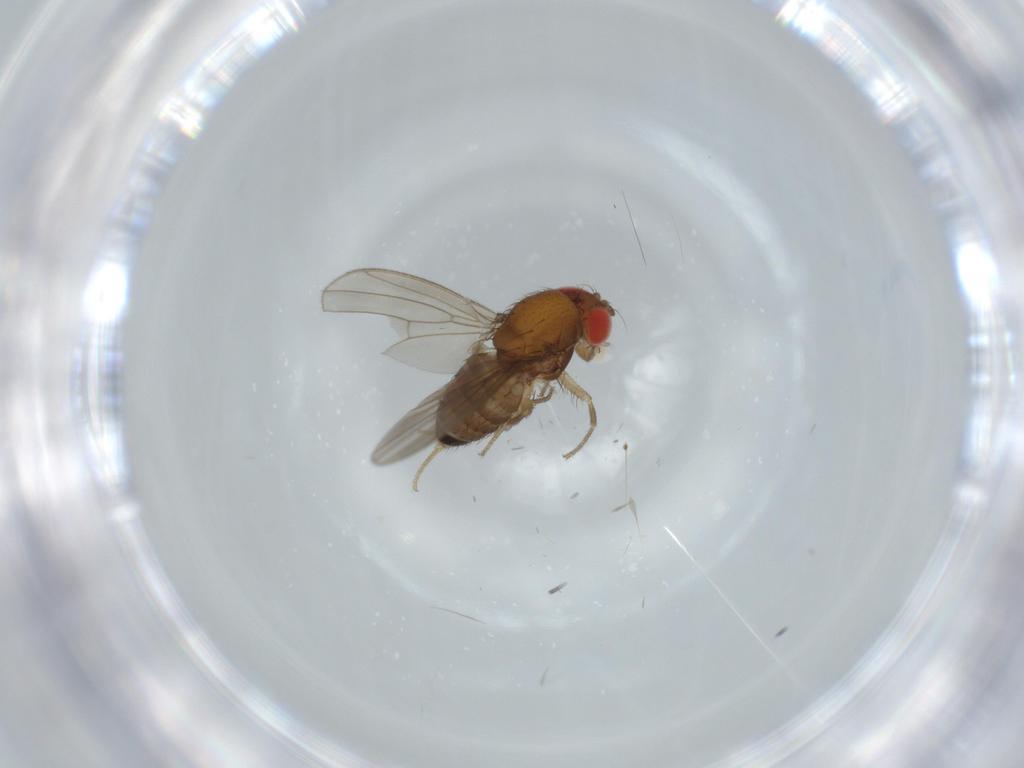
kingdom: Animalia
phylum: Arthropoda
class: Insecta
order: Diptera
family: Drosophilidae
